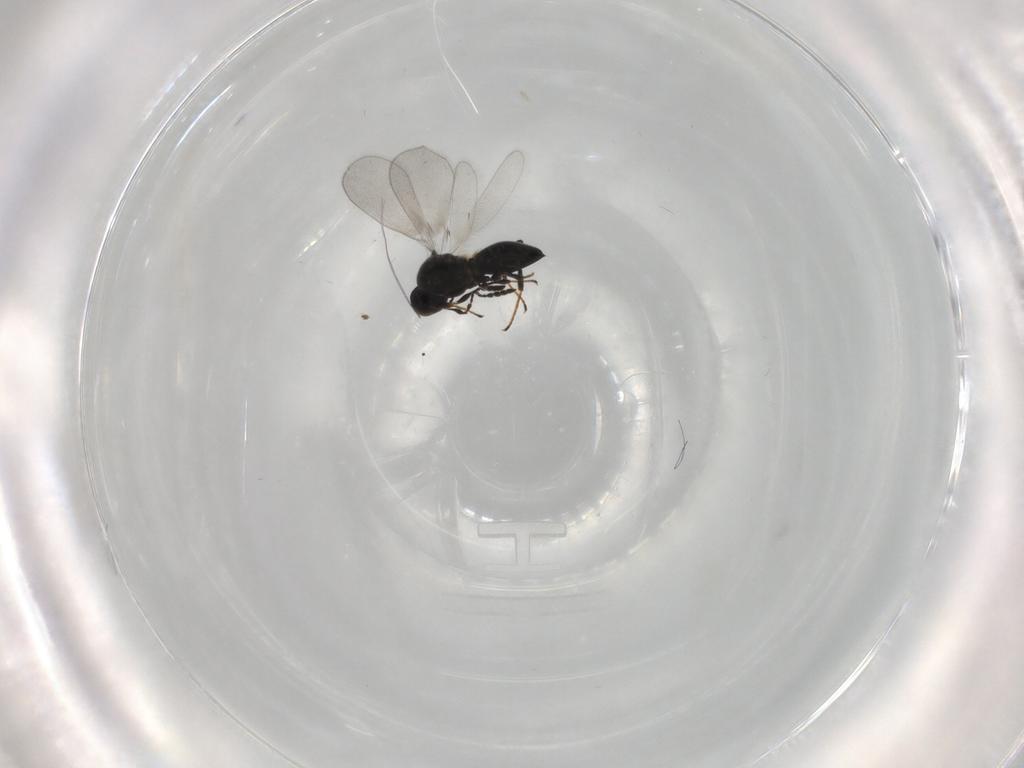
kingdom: Animalia
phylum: Arthropoda
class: Insecta
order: Hymenoptera
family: Platygastridae
